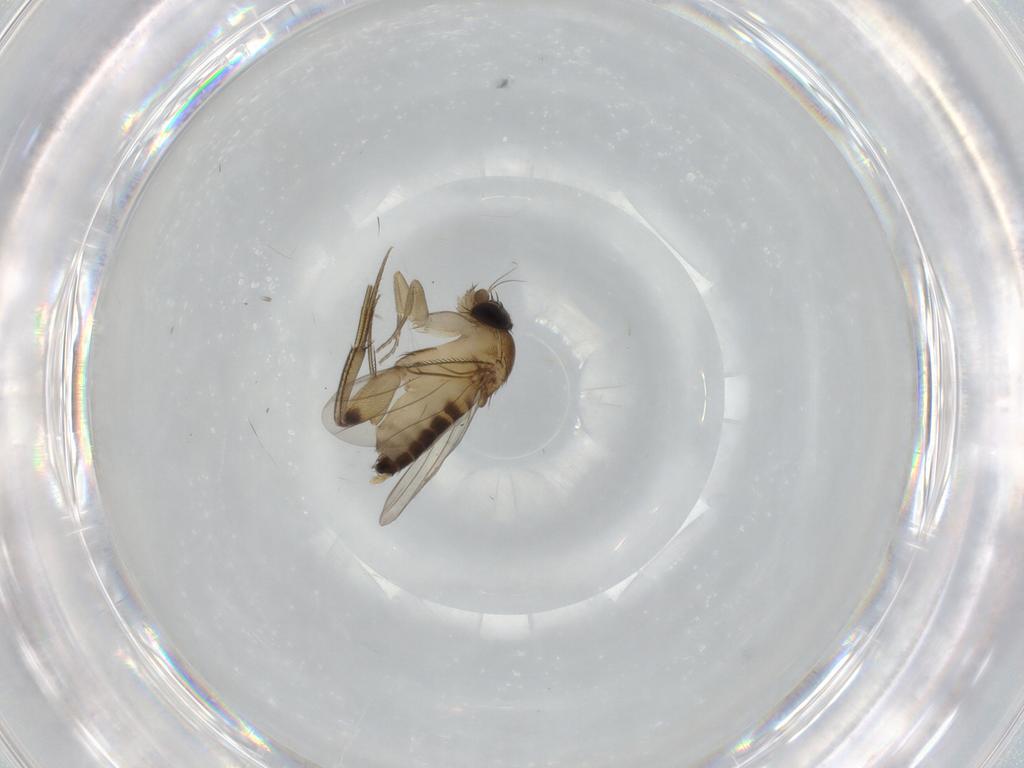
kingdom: Animalia
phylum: Arthropoda
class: Insecta
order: Diptera
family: Phoridae
